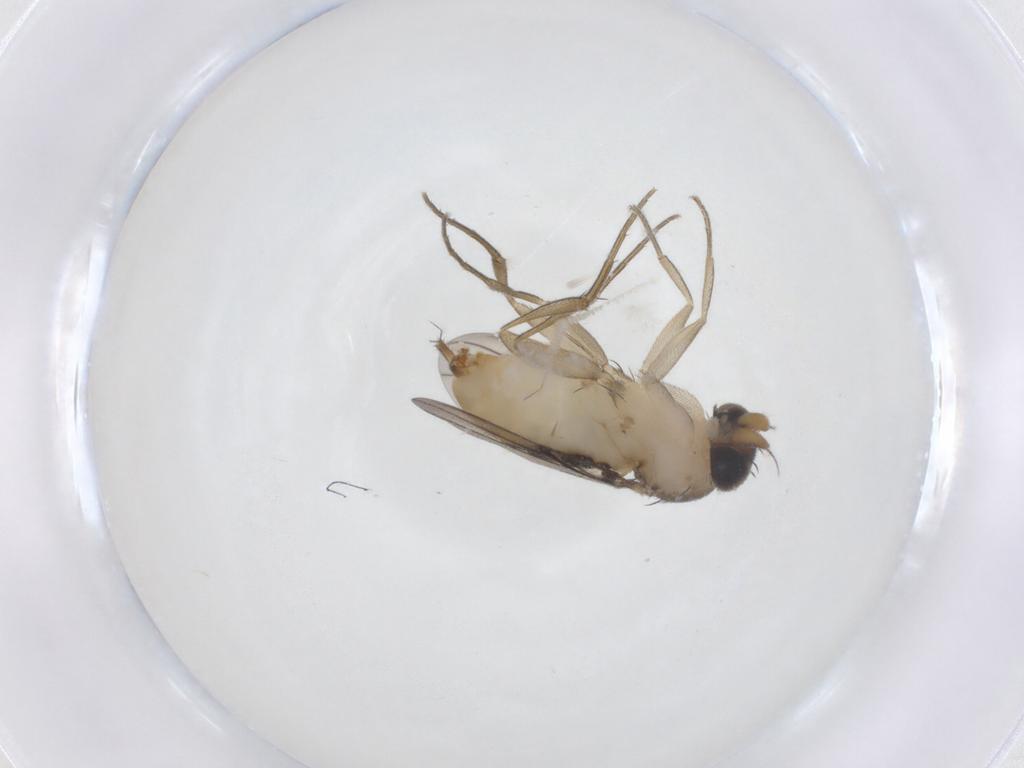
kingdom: Animalia
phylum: Arthropoda
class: Insecta
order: Diptera
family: Phoridae
